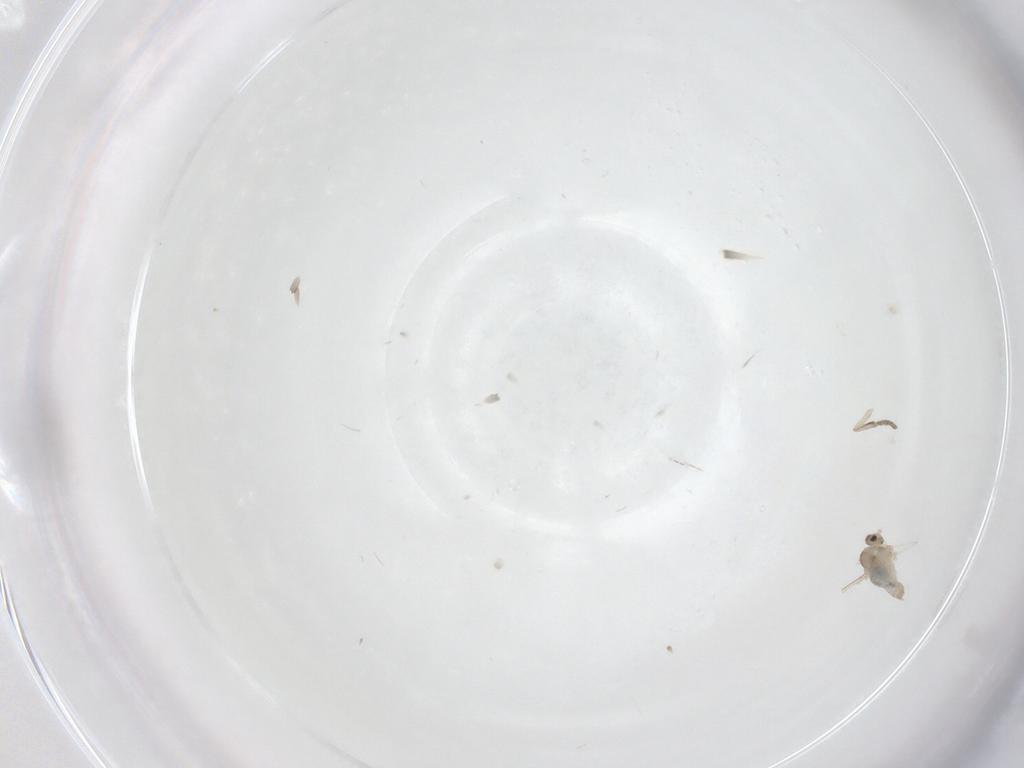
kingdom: Animalia
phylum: Arthropoda
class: Insecta
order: Diptera
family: Cecidomyiidae
